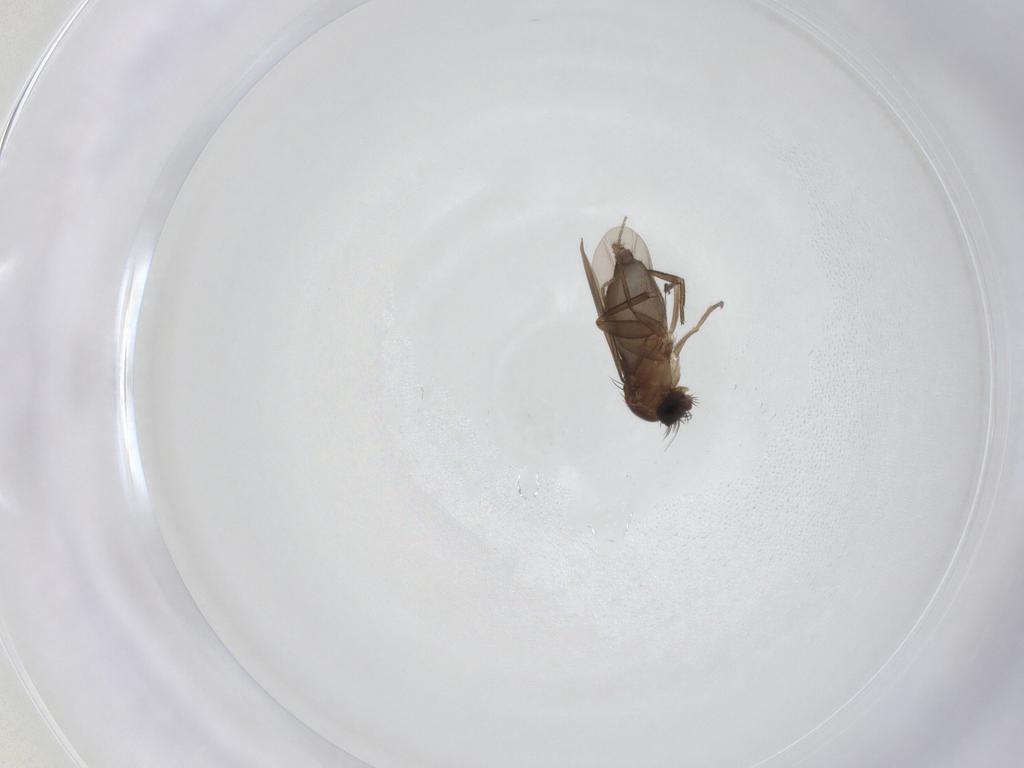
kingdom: Animalia
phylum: Arthropoda
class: Insecta
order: Diptera
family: Phoridae
